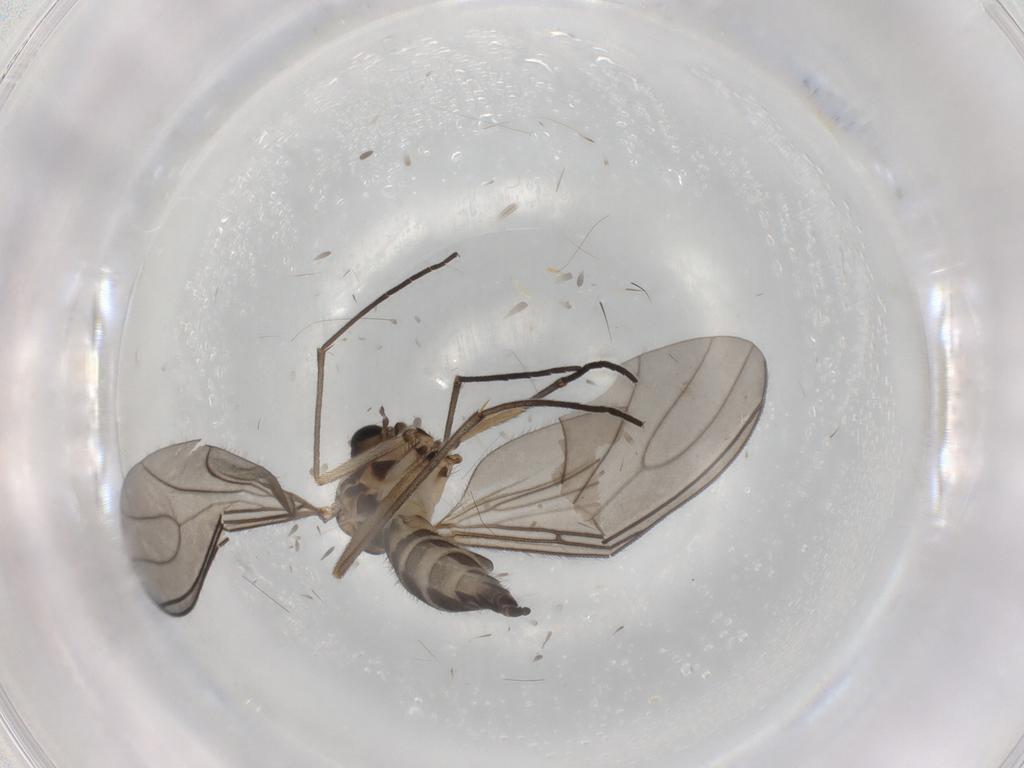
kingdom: Animalia
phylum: Arthropoda
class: Insecta
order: Diptera
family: Sciaridae
